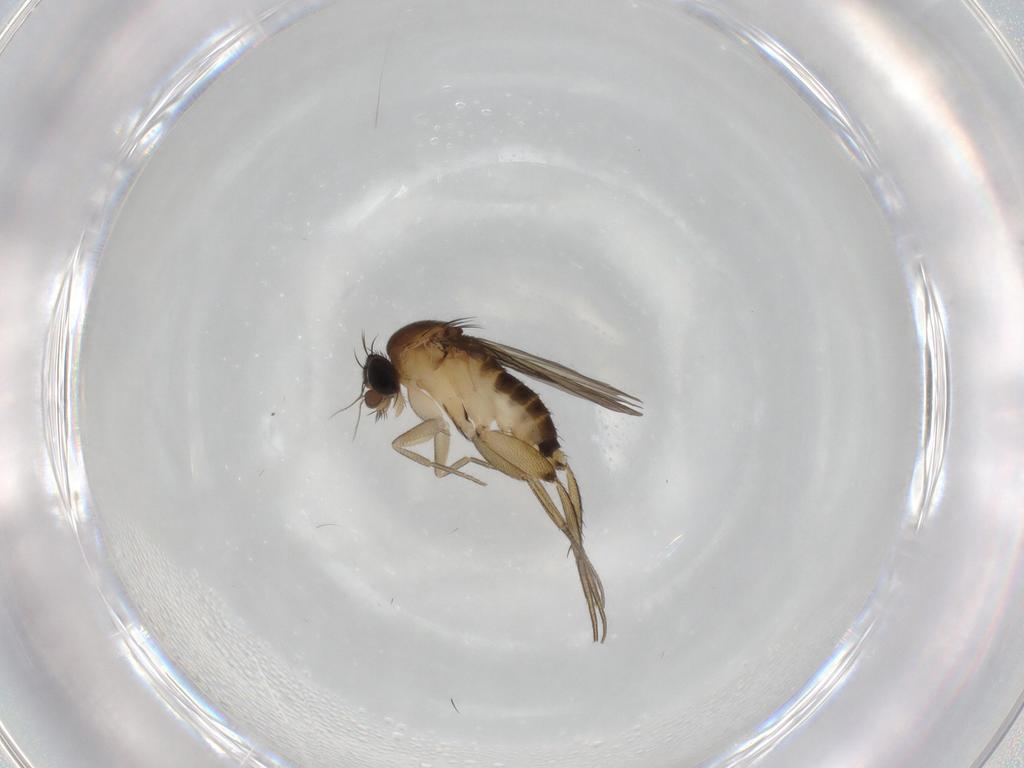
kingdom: Animalia
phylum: Arthropoda
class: Insecta
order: Diptera
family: Phoridae
